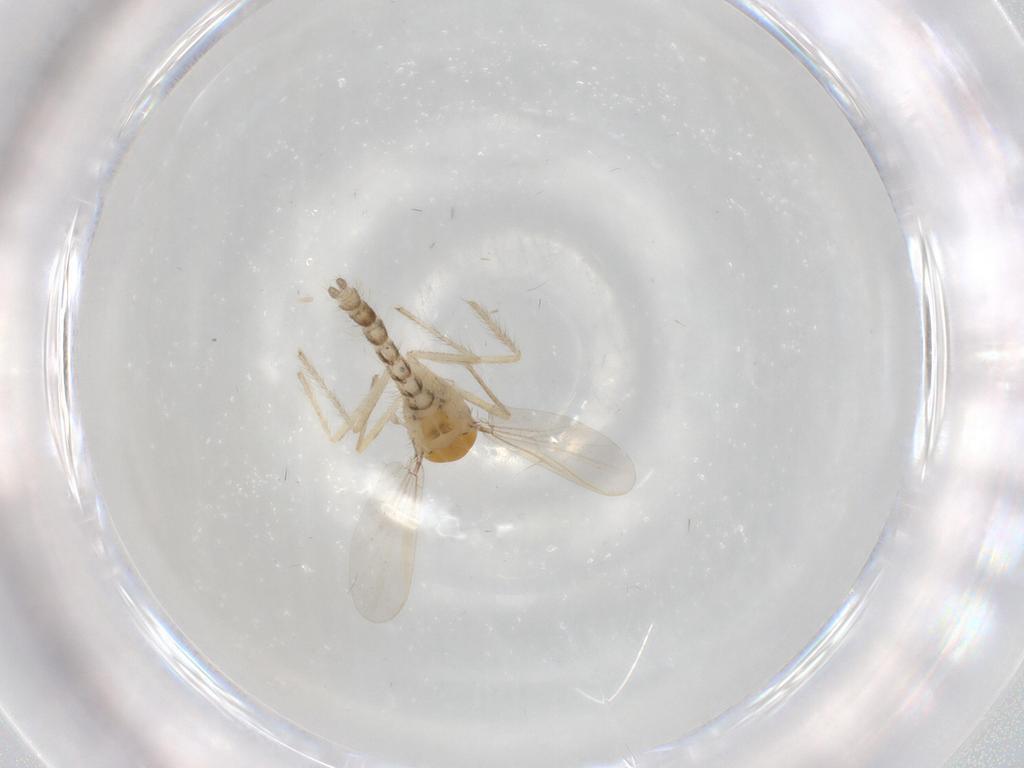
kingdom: Animalia
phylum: Arthropoda
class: Insecta
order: Diptera
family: Chironomidae
